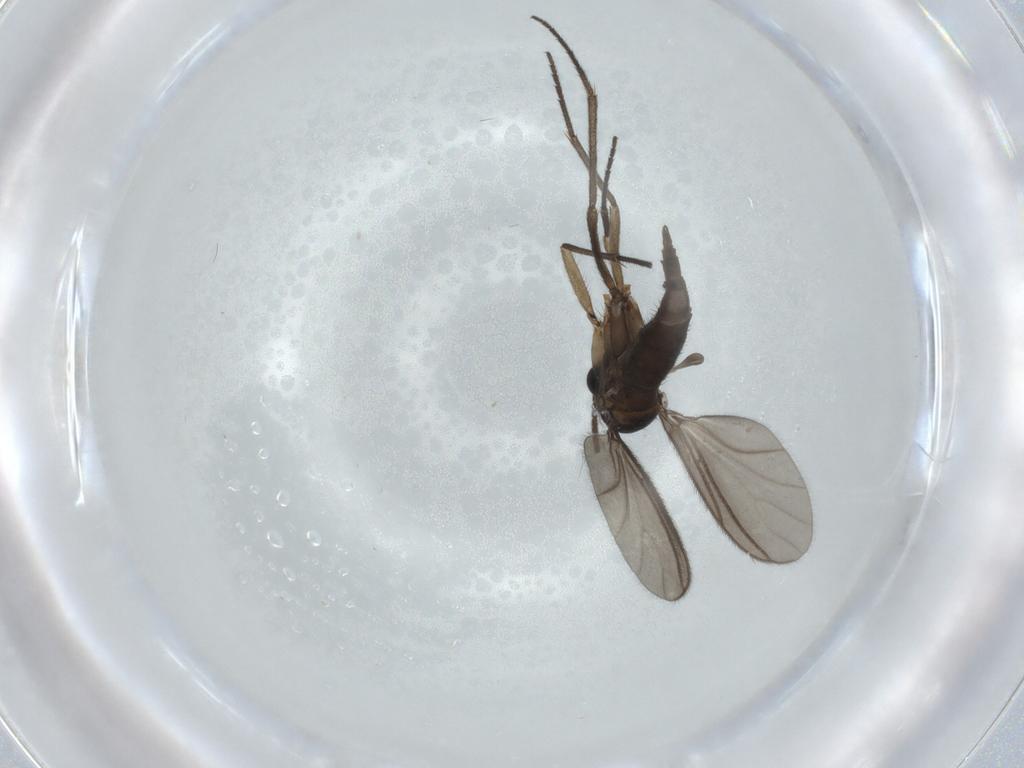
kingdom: Animalia
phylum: Arthropoda
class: Insecta
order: Diptera
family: Sciaridae
